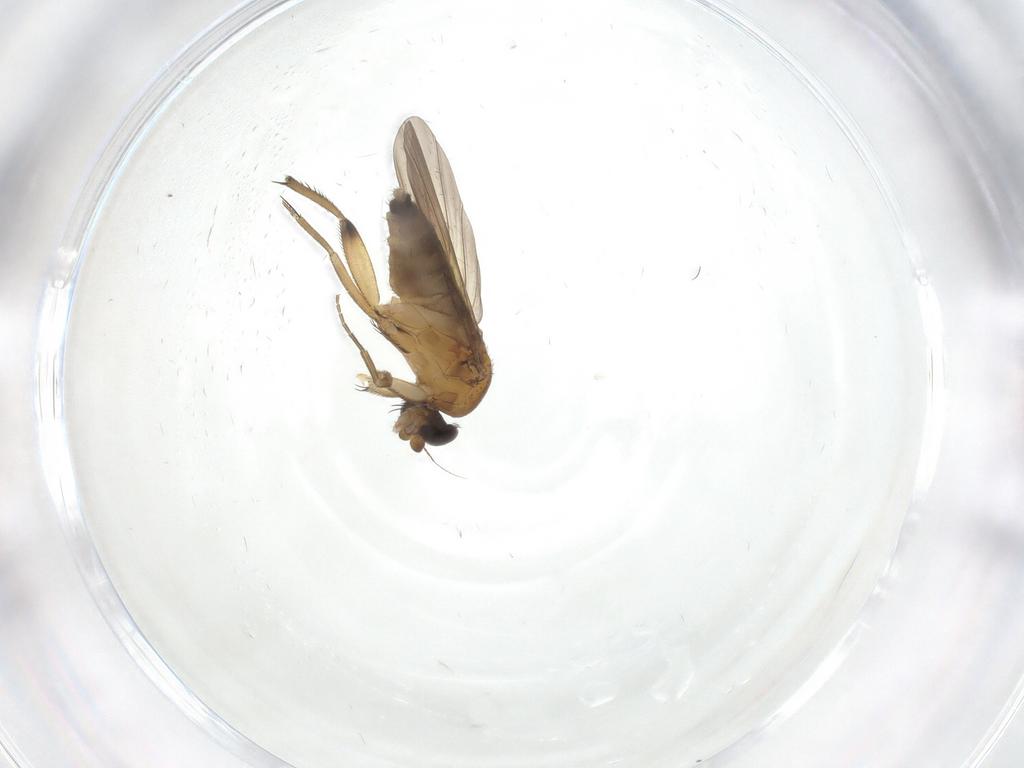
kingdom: Animalia
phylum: Arthropoda
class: Insecta
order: Diptera
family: Phoridae
